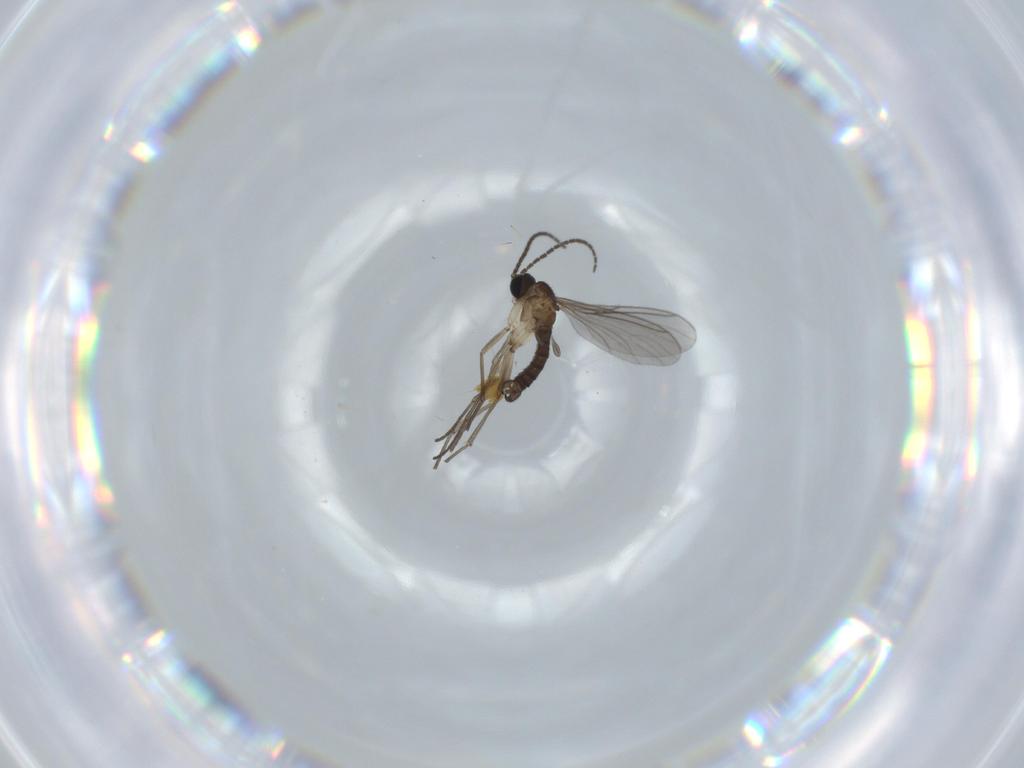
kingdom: Animalia
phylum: Arthropoda
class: Insecta
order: Diptera
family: Sciaridae
